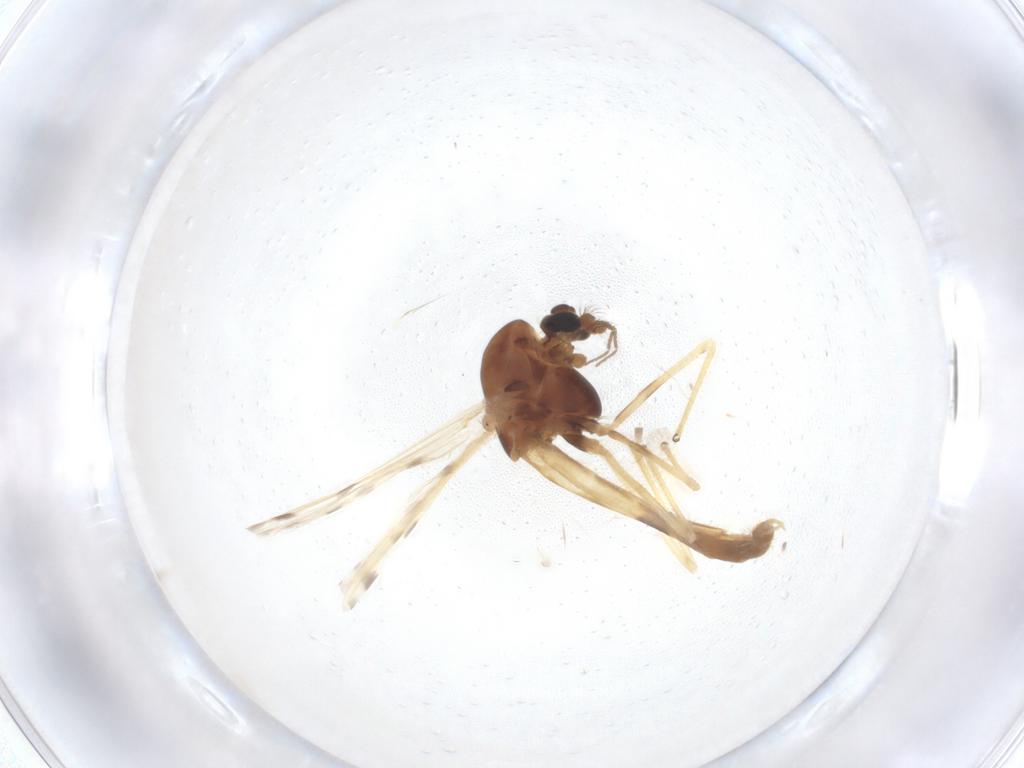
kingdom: Animalia
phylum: Arthropoda
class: Insecta
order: Diptera
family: Chironomidae
